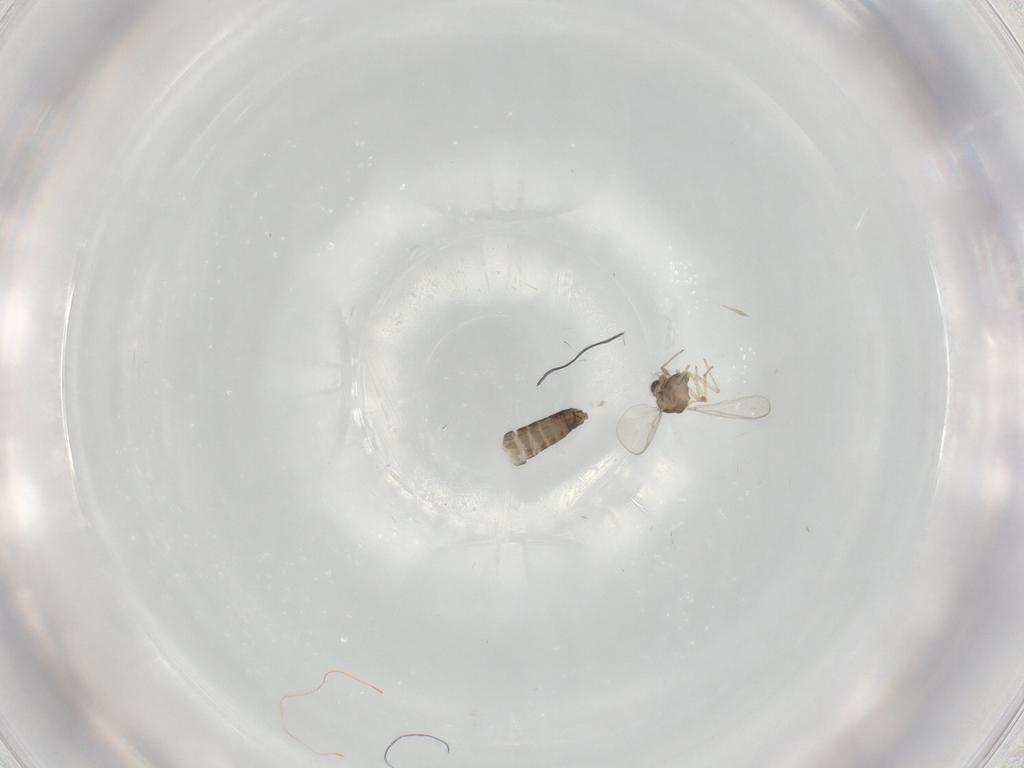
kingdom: Animalia
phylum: Arthropoda
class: Insecta
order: Diptera
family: Chironomidae
